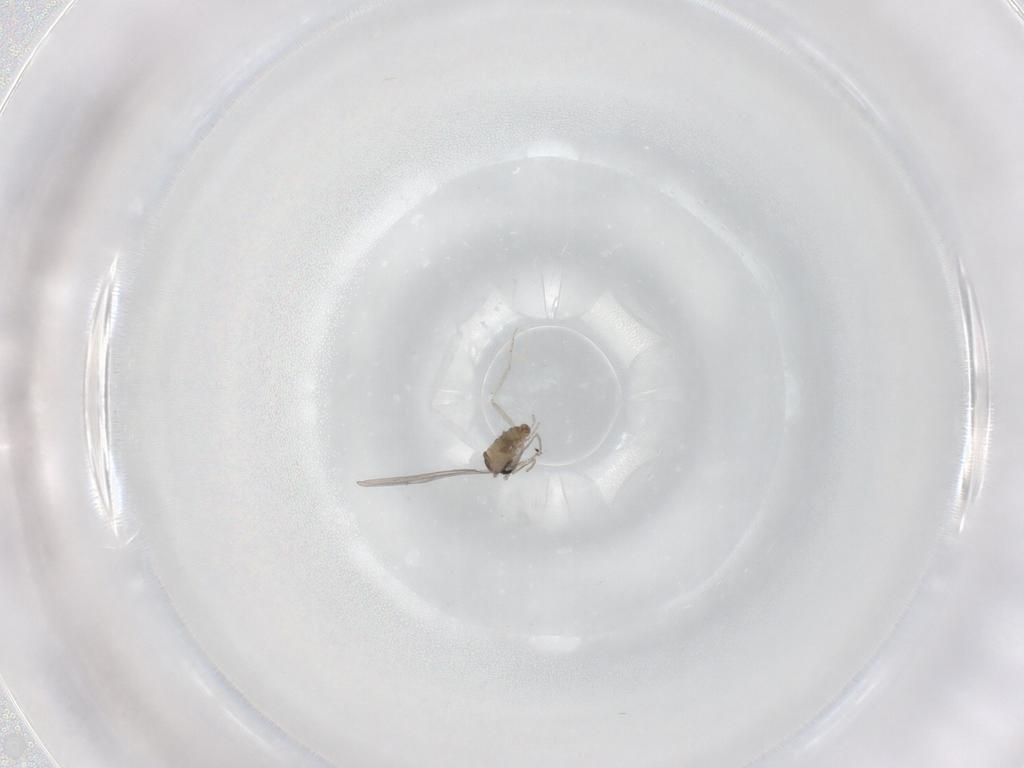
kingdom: Animalia
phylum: Arthropoda
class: Insecta
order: Diptera
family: Cecidomyiidae
